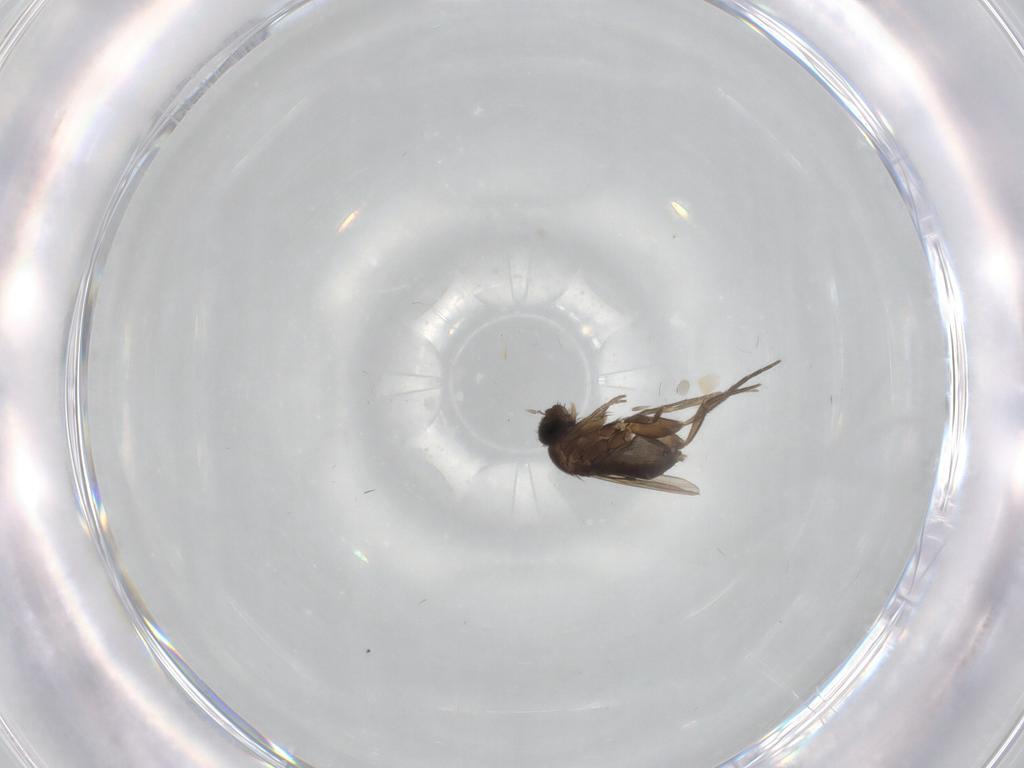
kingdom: Animalia
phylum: Arthropoda
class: Insecta
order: Diptera
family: Phoridae
